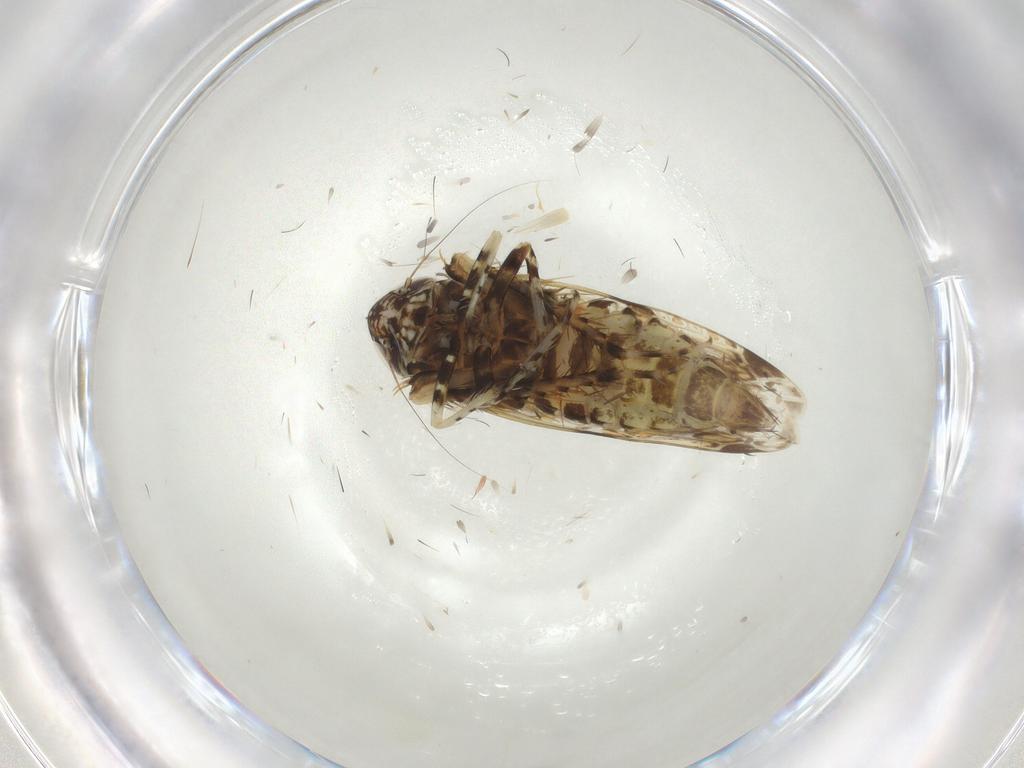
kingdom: Animalia
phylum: Arthropoda
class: Insecta
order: Hemiptera
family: Cicadellidae
